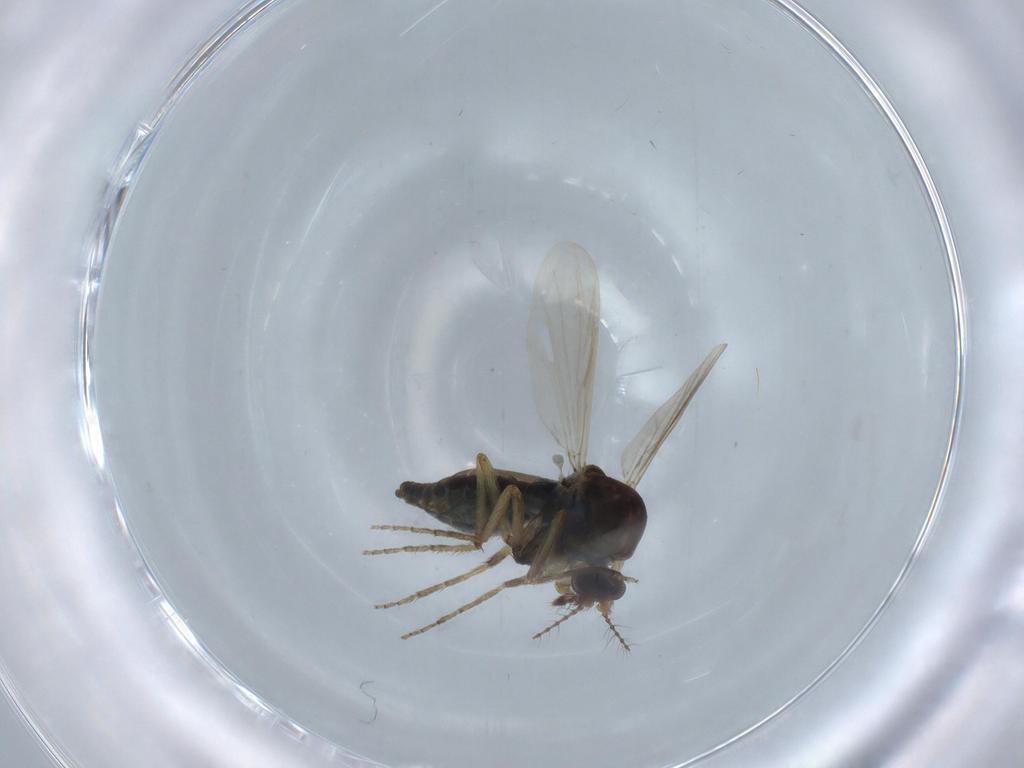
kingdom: Animalia
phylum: Arthropoda
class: Insecta
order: Diptera
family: Ceratopogonidae
